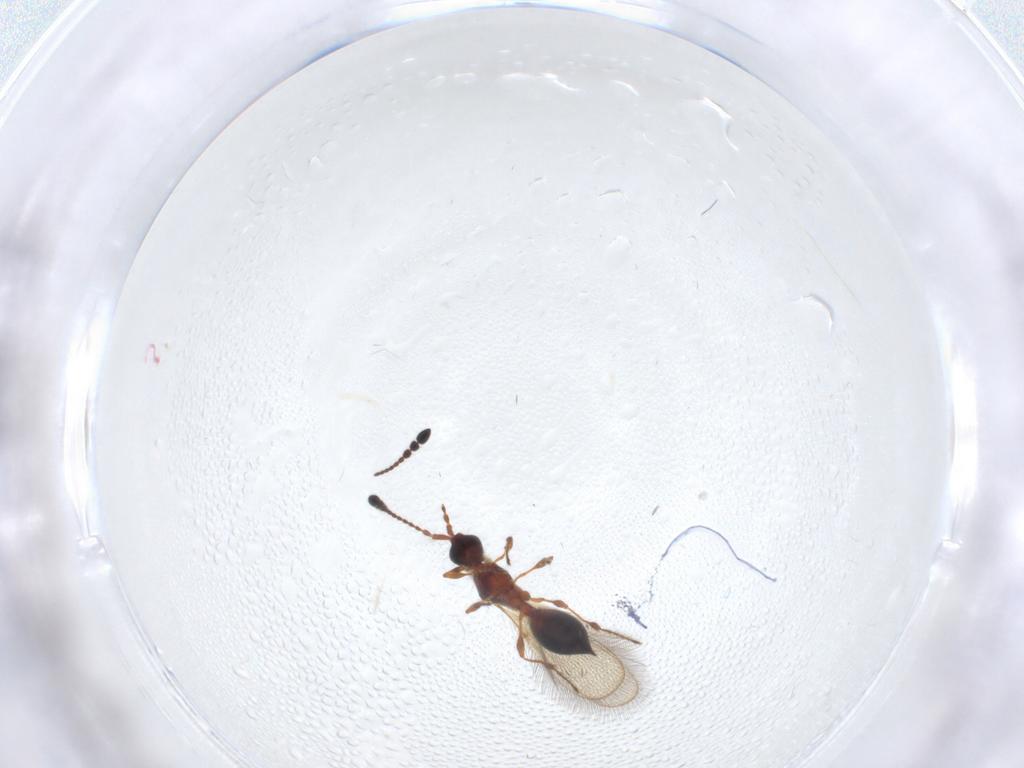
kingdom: Animalia
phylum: Arthropoda
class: Insecta
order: Hymenoptera
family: Diapriidae
